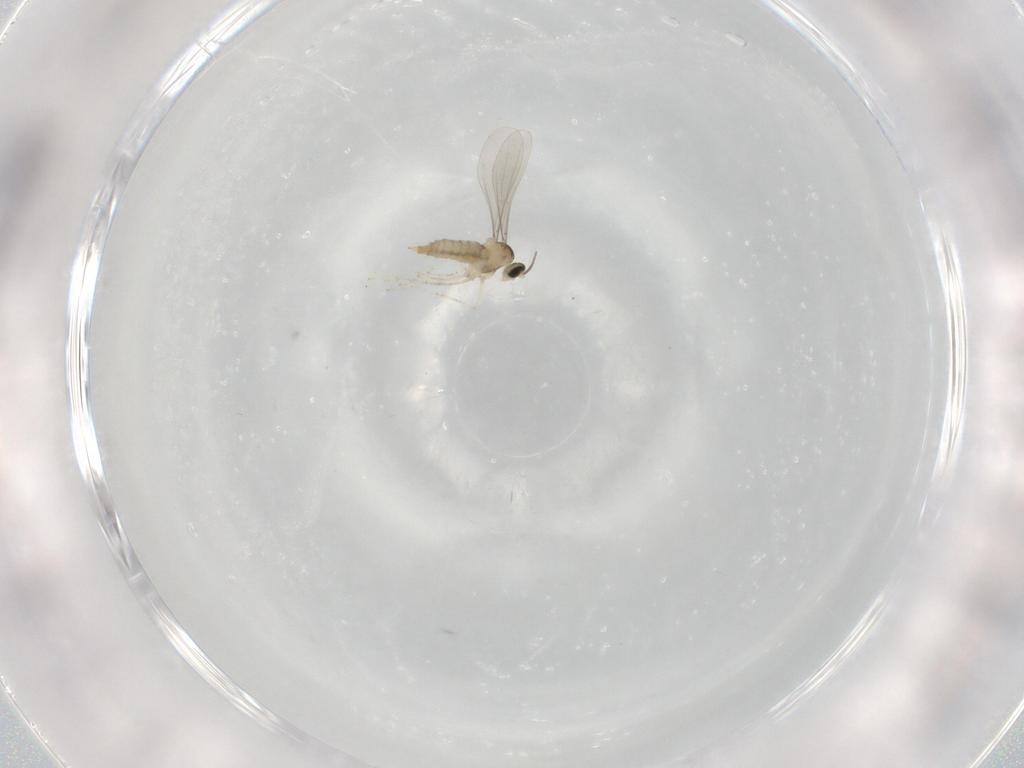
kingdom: Animalia
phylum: Arthropoda
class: Insecta
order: Diptera
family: Cecidomyiidae
